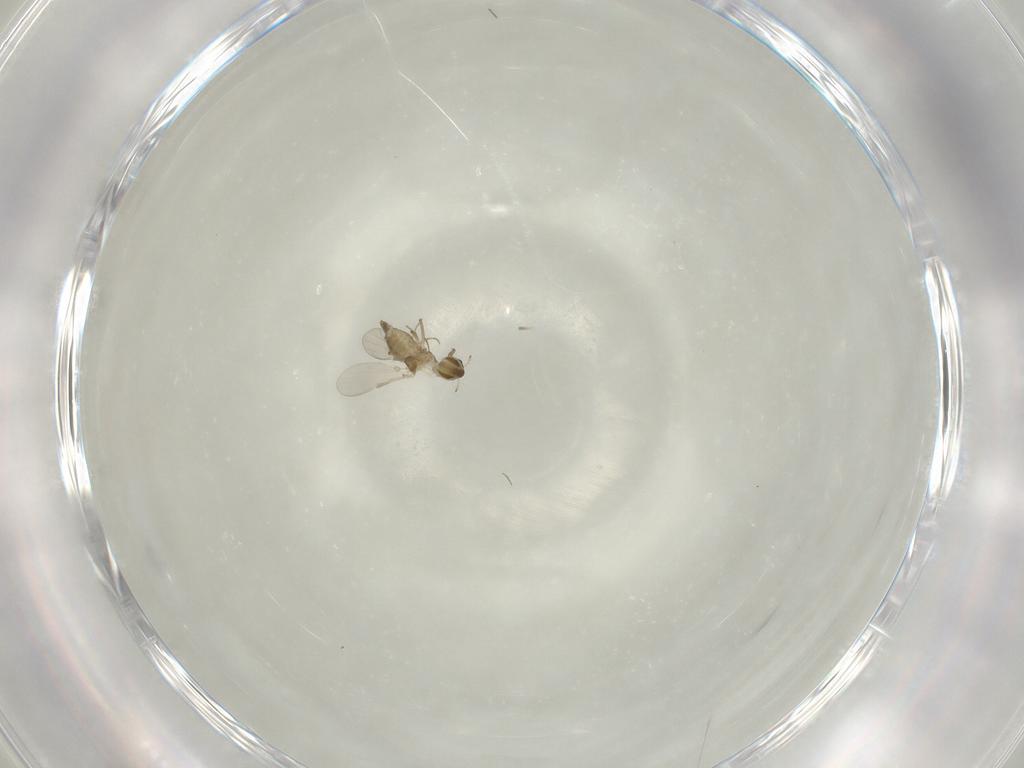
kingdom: Animalia
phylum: Arthropoda
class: Insecta
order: Diptera
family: Chironomidae
